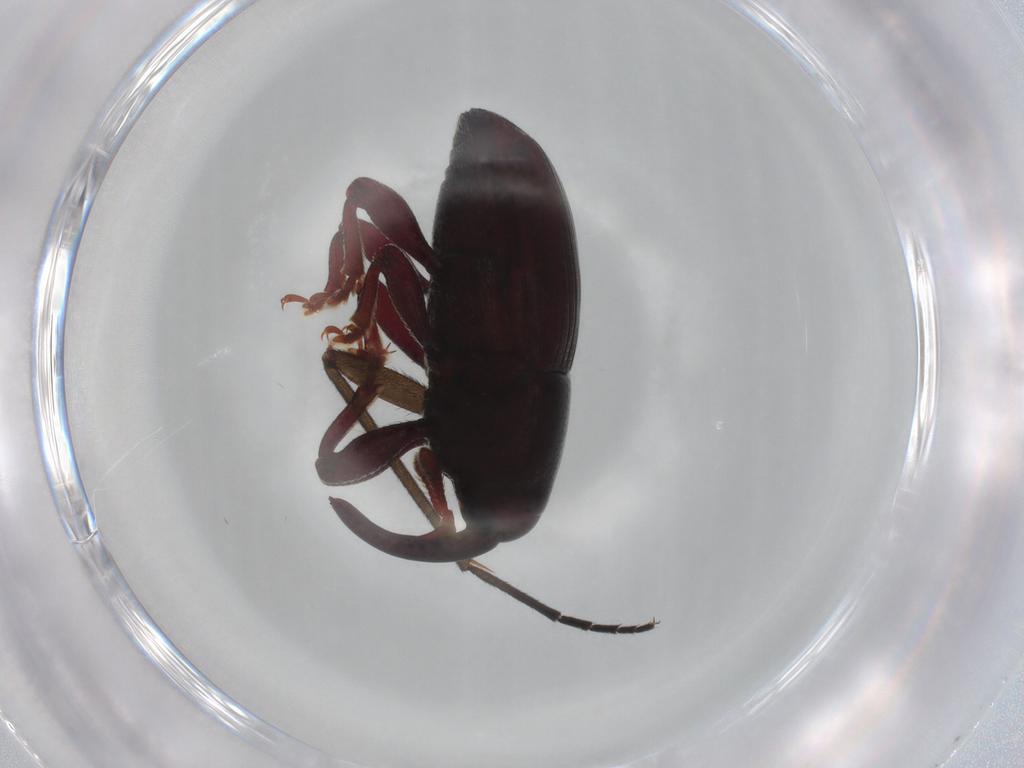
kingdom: Animalia
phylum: Arthropoda
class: Insecta
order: Coleoptera
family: Curculionidae
